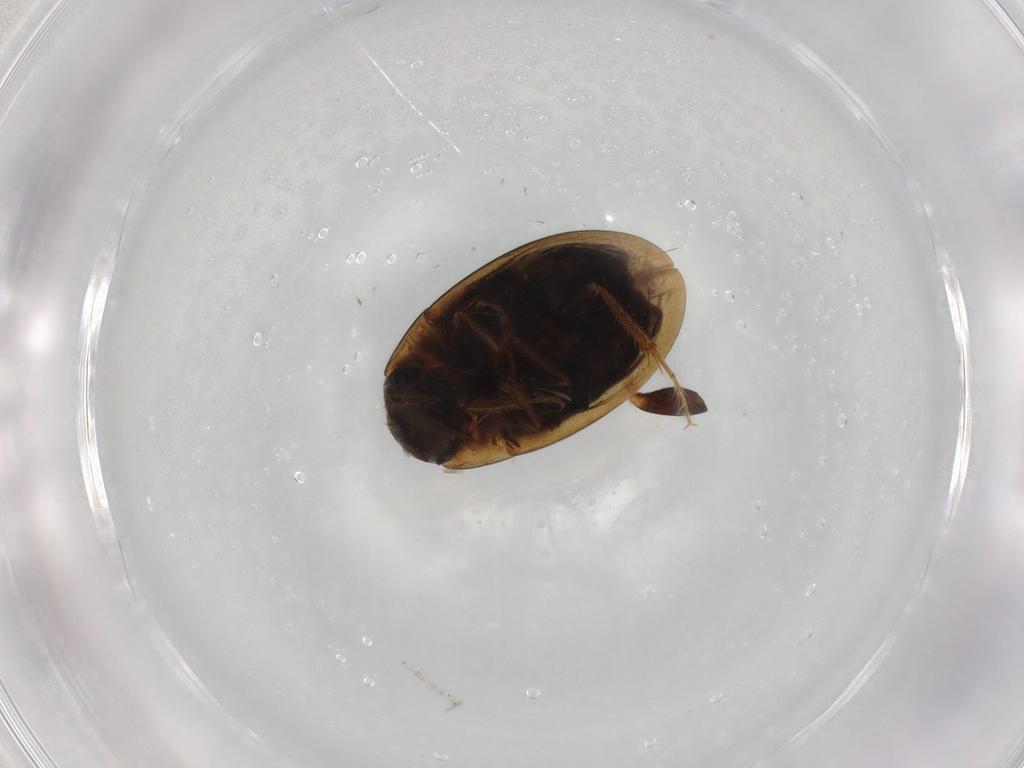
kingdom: Animalia
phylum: Arthropoda
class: Insecta
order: Coleoptera
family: Hydrophilidae
